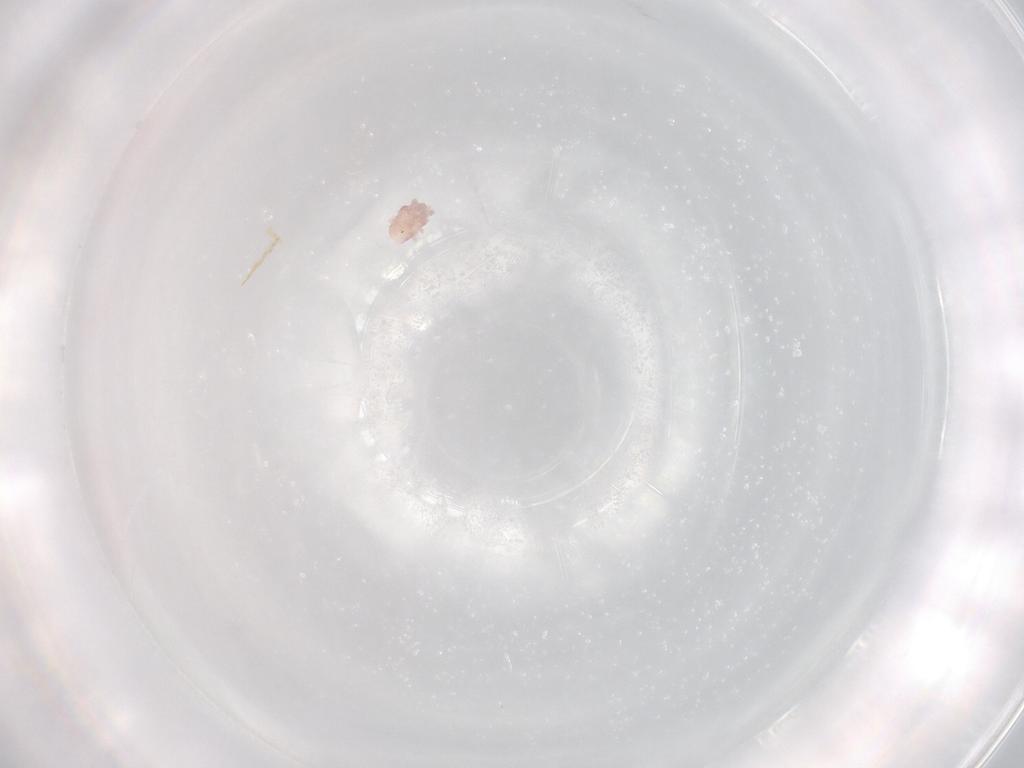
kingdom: Animalia
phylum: Arthropoda
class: Arachnida
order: Sarcoptiformes
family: Alycidae
